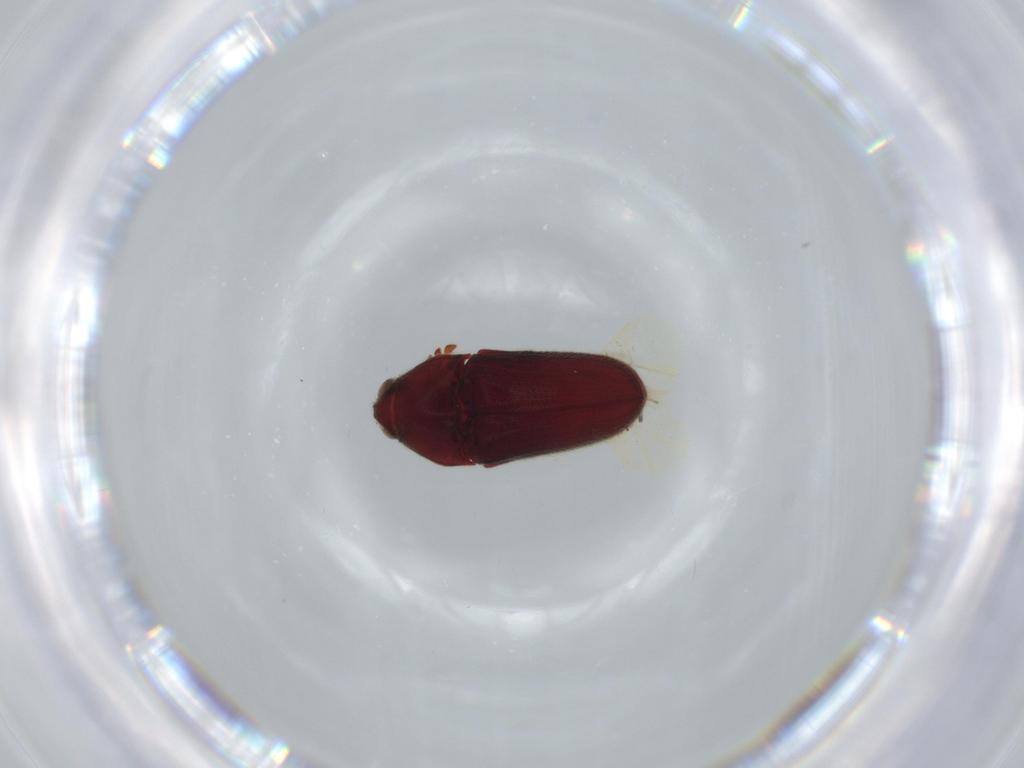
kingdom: Animalia
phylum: Arthropoda
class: Insecta
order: Coleoptera
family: Throscidae
